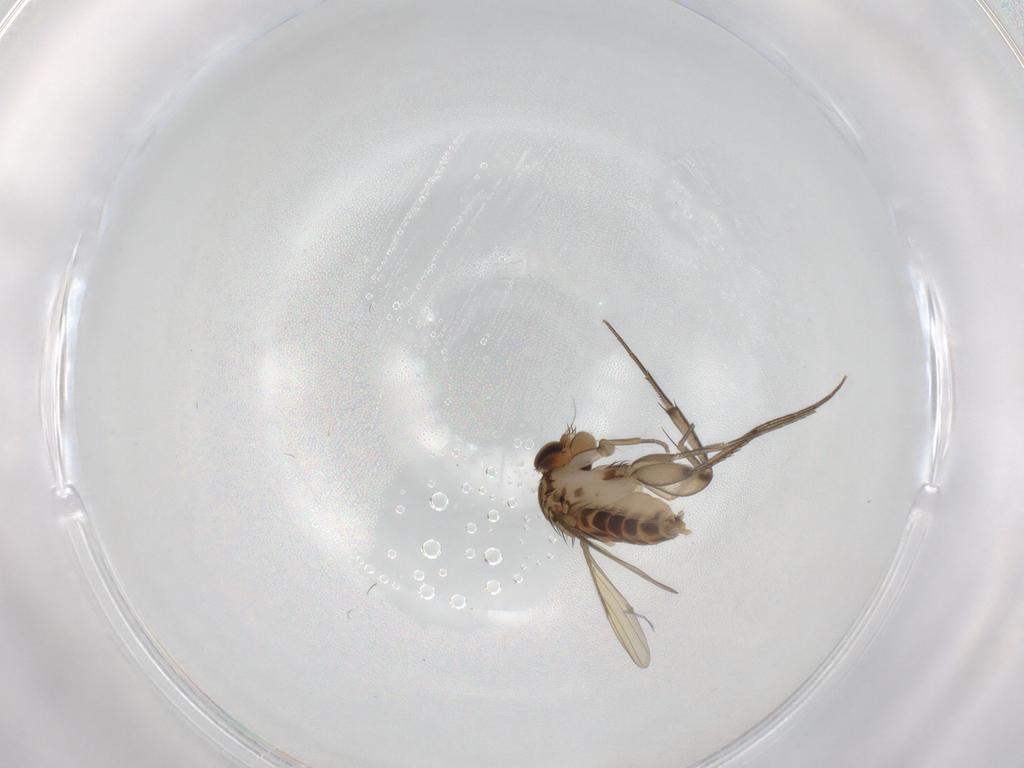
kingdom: Animalia
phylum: Arthropoda
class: Insecta
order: Diptera
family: Phoridae
